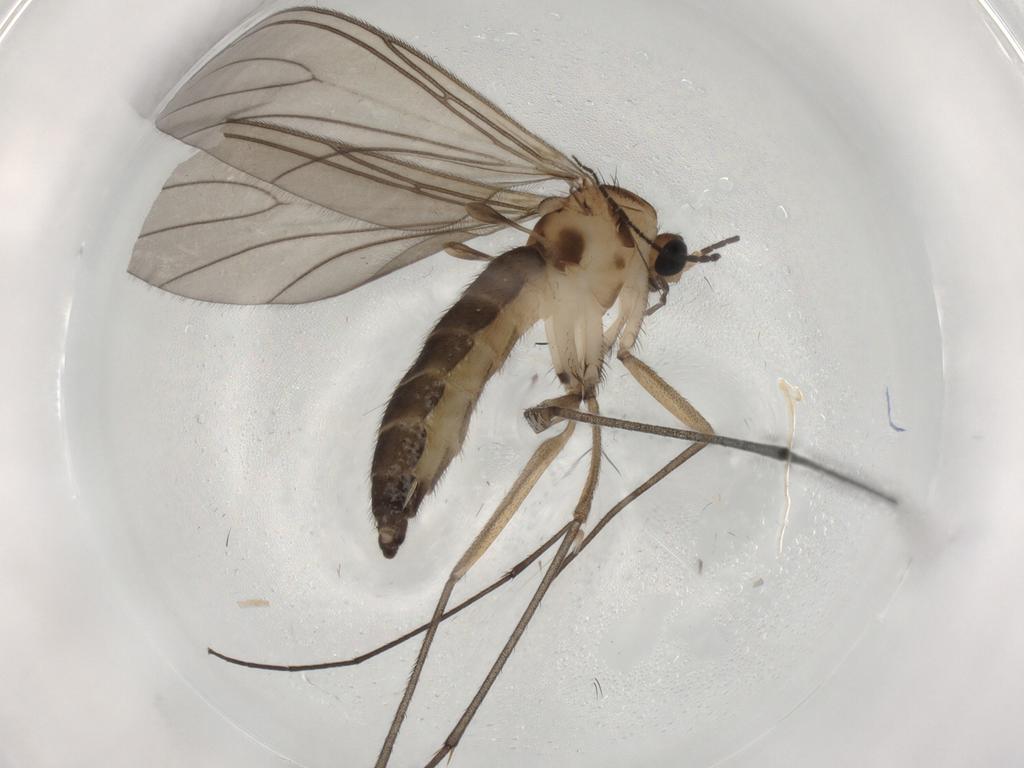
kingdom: Animalia
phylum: Arthropoda
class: Insecta
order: Diptera
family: Sciaridae
